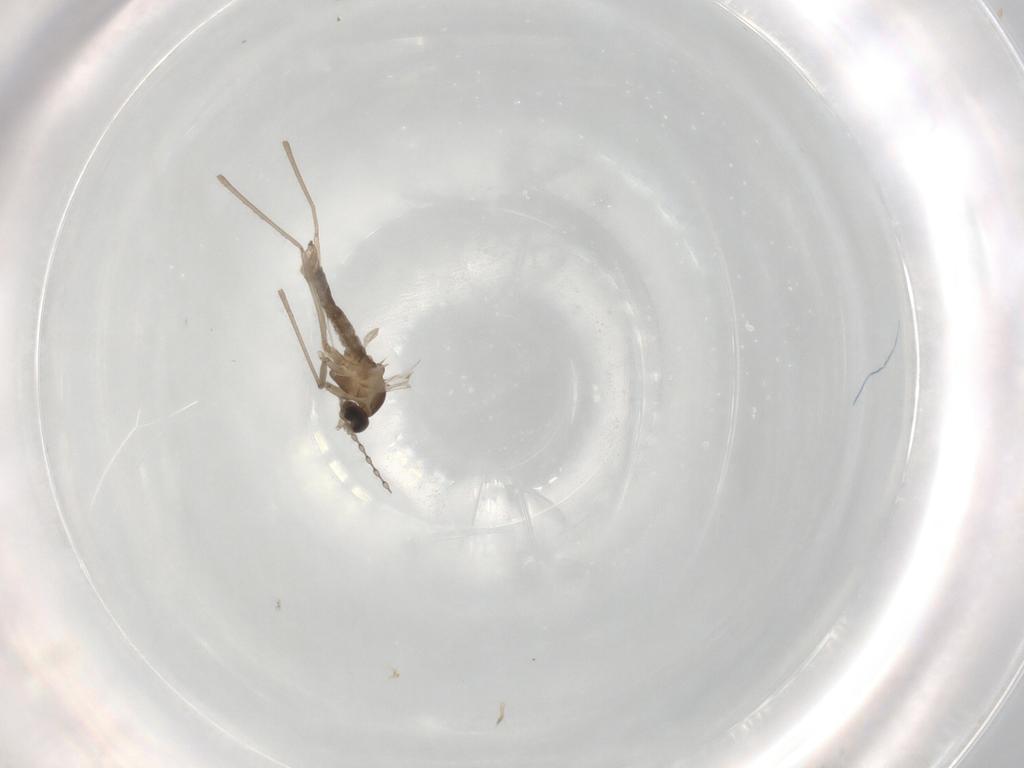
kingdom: Animalia
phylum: Arthropoda
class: Insecta
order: Diptera
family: Cecidomyiidae
